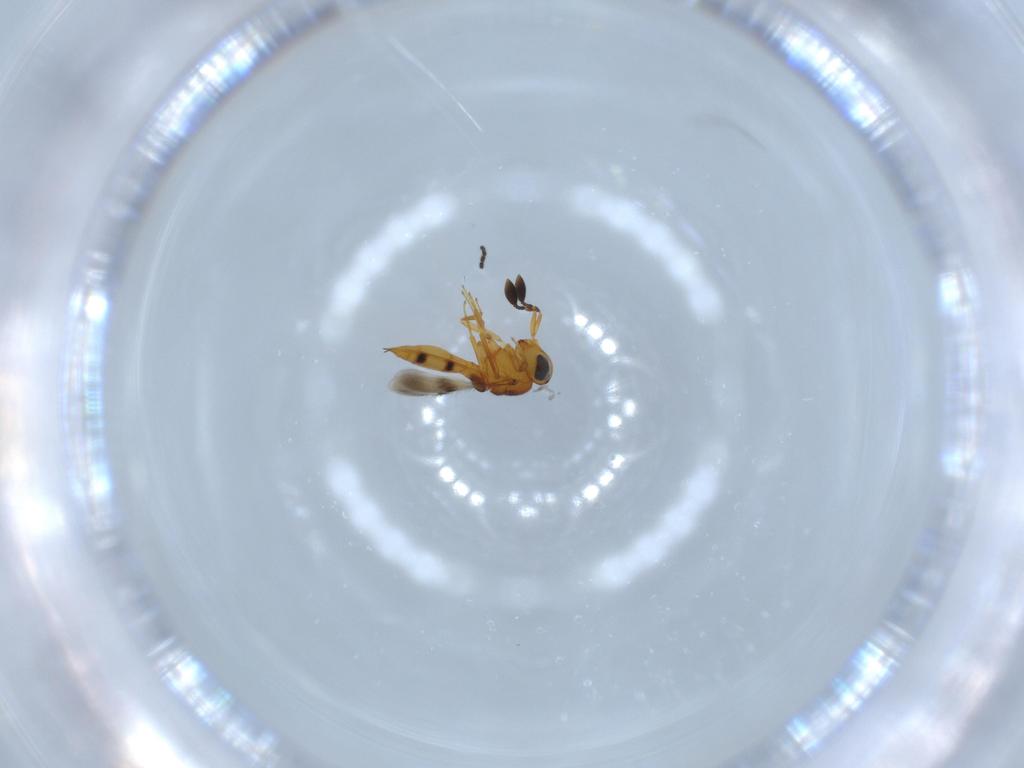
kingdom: Animalia
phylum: Arthropoda
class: Insecta
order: Hymenoptera
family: Scelionidae
